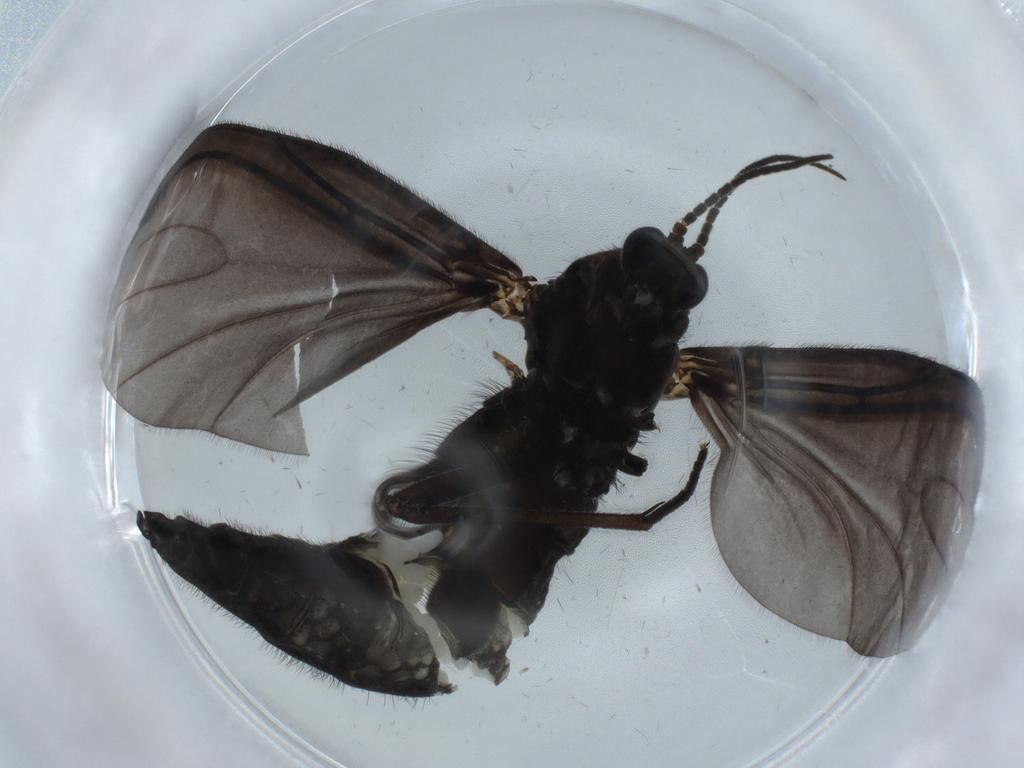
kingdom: Animalia
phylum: Arthropoda
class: Insecta
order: Diptera
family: Sciaridae
